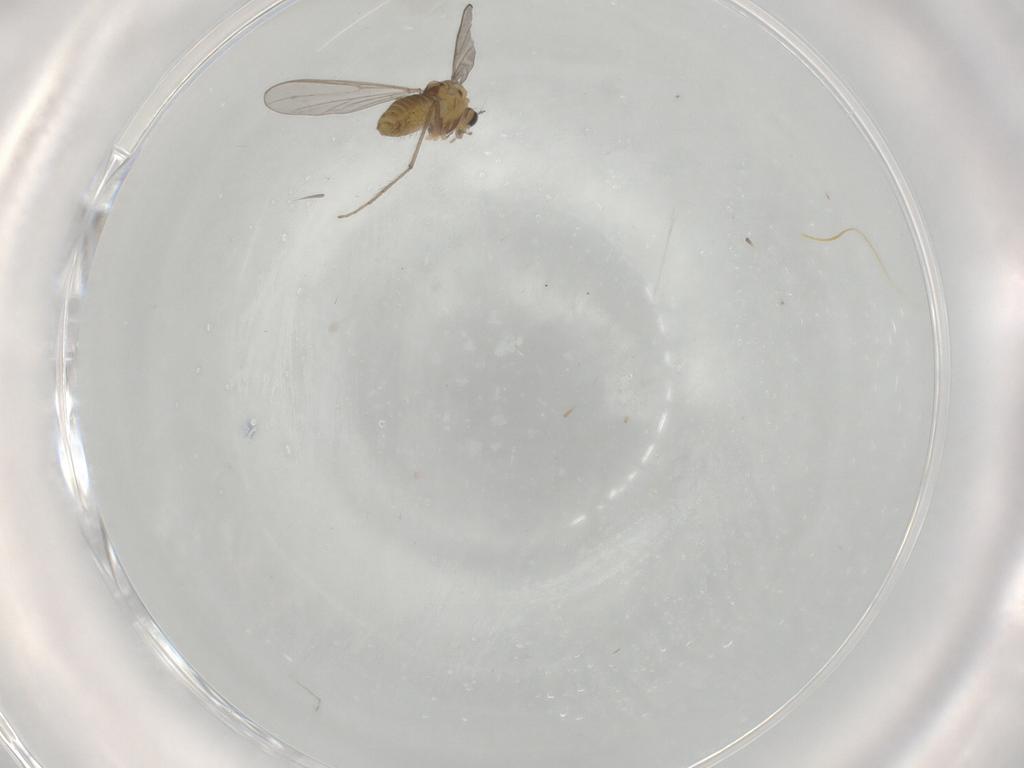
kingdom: Animalia
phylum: Arthropoda
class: Insecta
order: Diptera
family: Chironomidae
